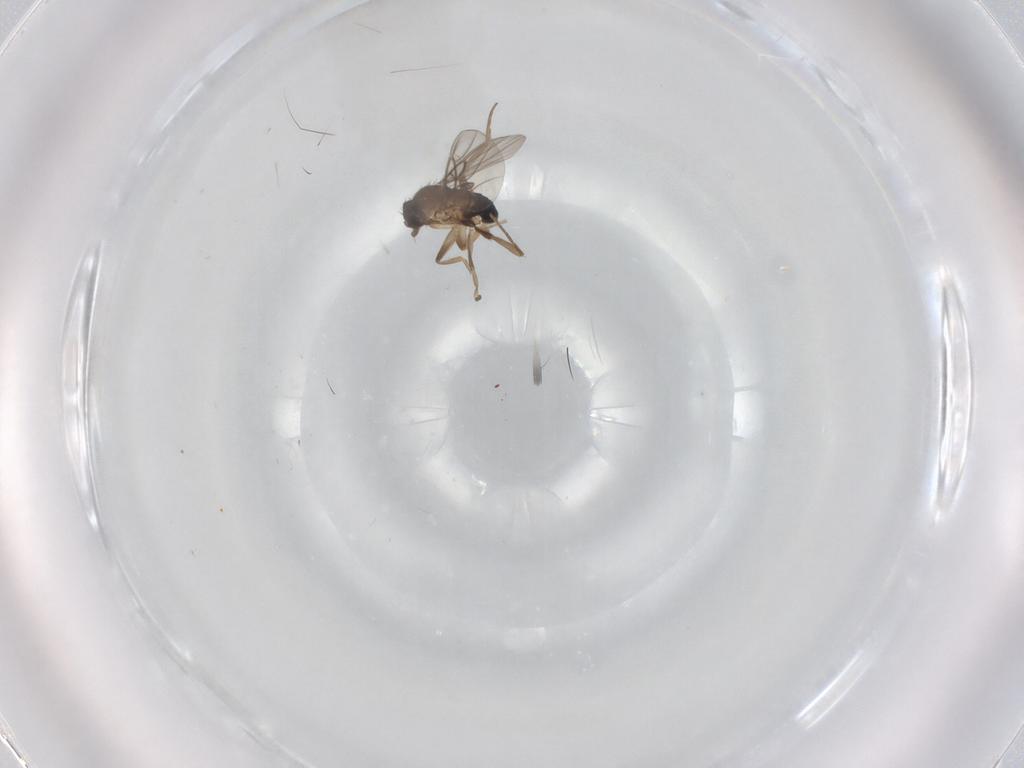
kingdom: Animalia
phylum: Arthropoda
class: Insecta
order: Diptera
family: Phoridae
